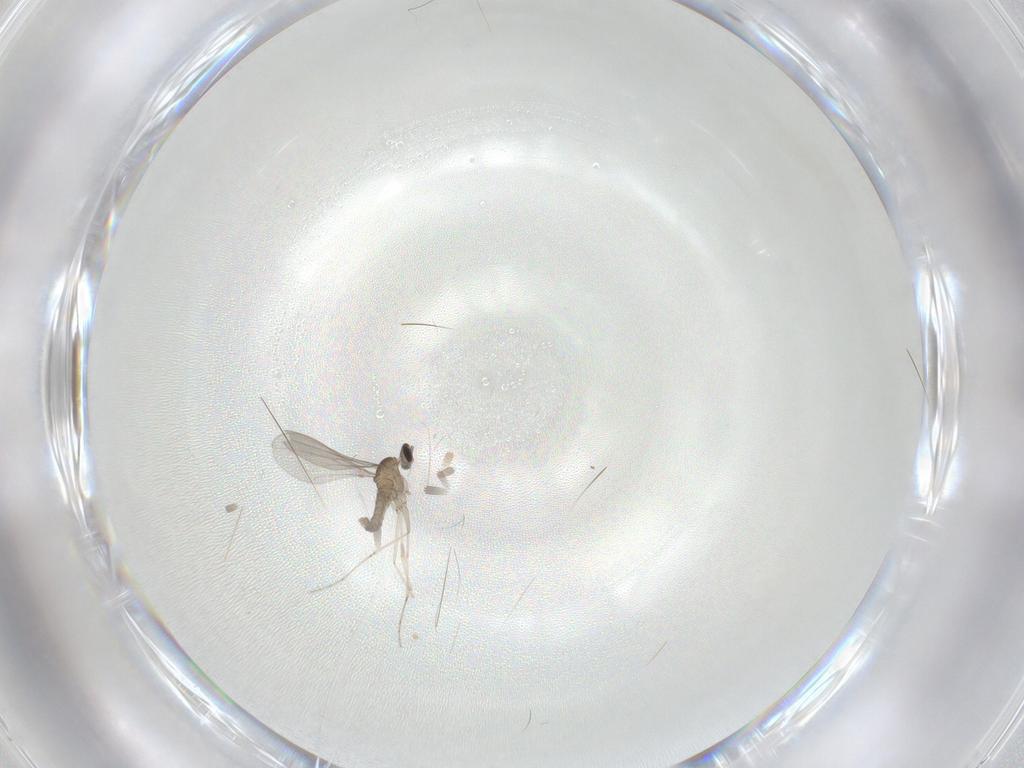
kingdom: Animalia
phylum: Arthropoda
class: Insecta
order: Diptera
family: Cecidomyiidae
